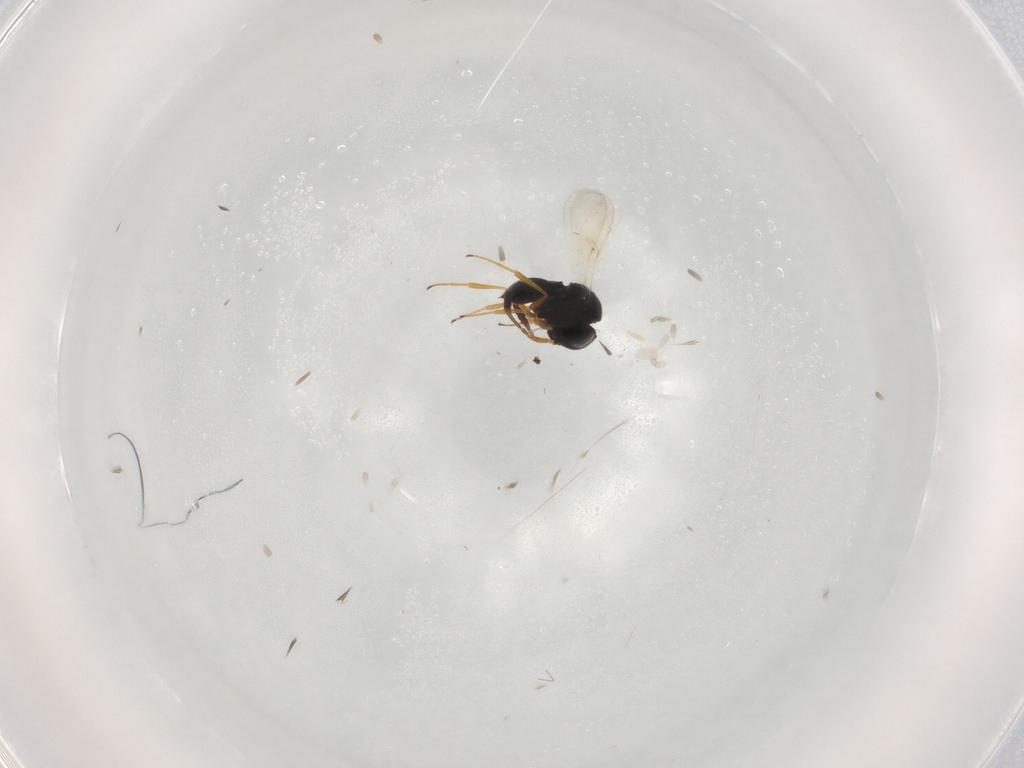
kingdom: Animalia
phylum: Arthropoda
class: Insecta
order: Hymenoptera
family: Scelionidae
